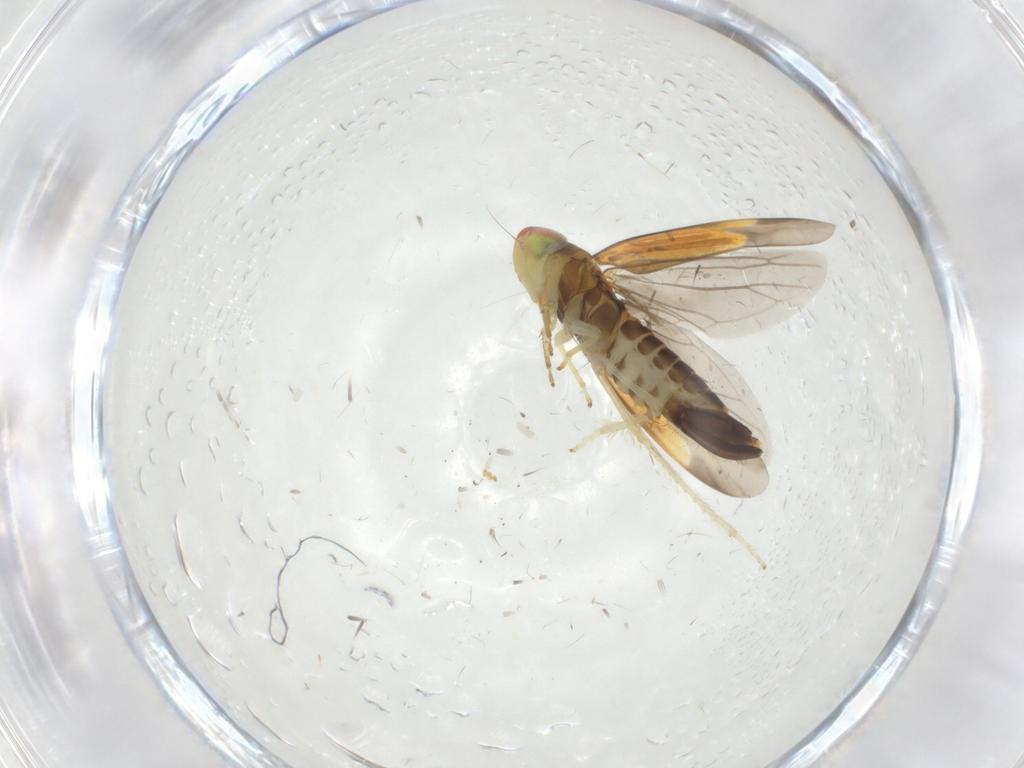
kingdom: Animalia
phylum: Arthropoda
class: Insecta
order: Hemiptera
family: Cicadellidae
